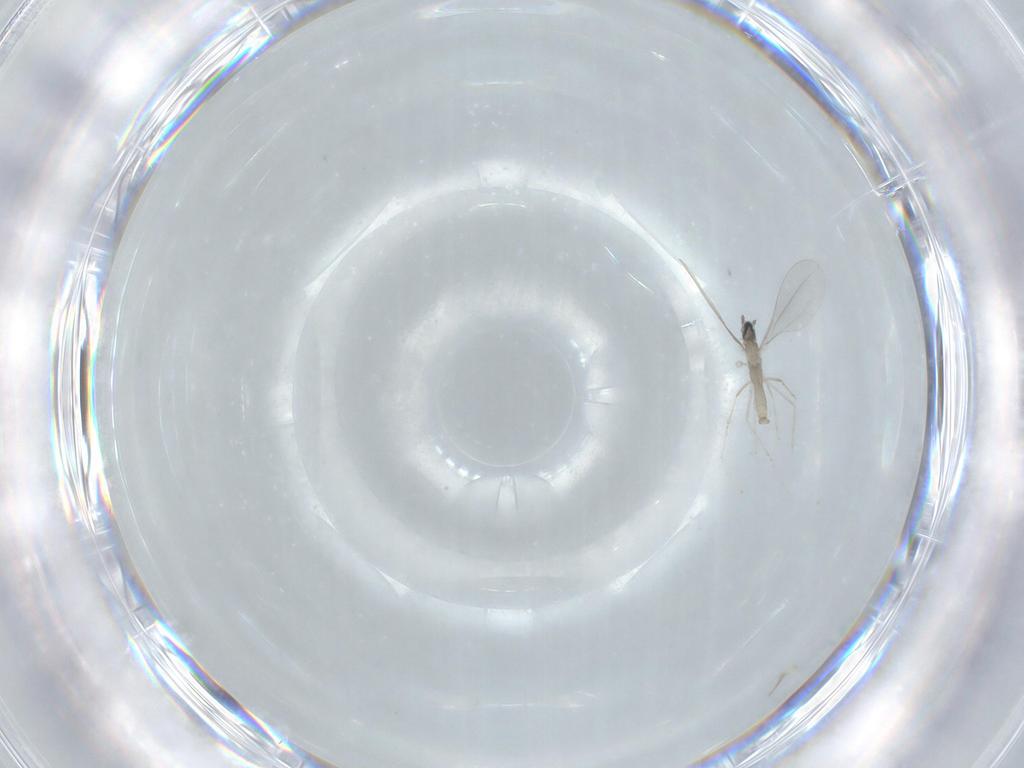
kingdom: Animalia
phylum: Arthropoda
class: Insecta
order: Diptera
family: Cecidomyiidae
